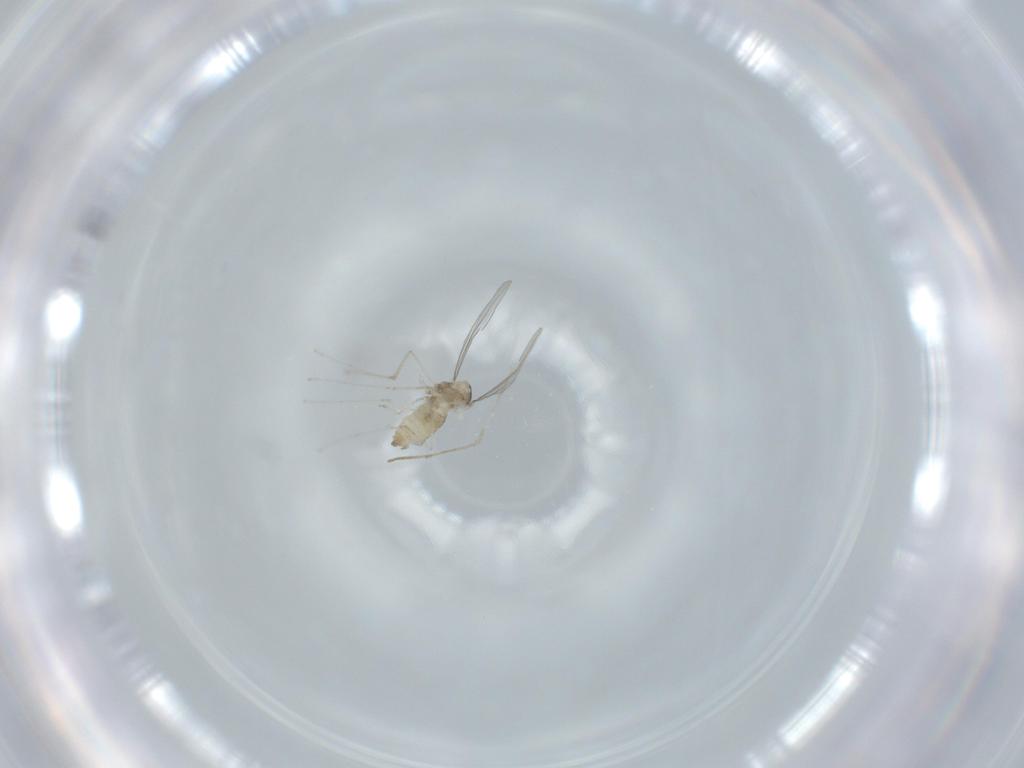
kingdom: Animalia
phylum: Arthropoda
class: Insecta
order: Diptera
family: Cecidomyiidae
